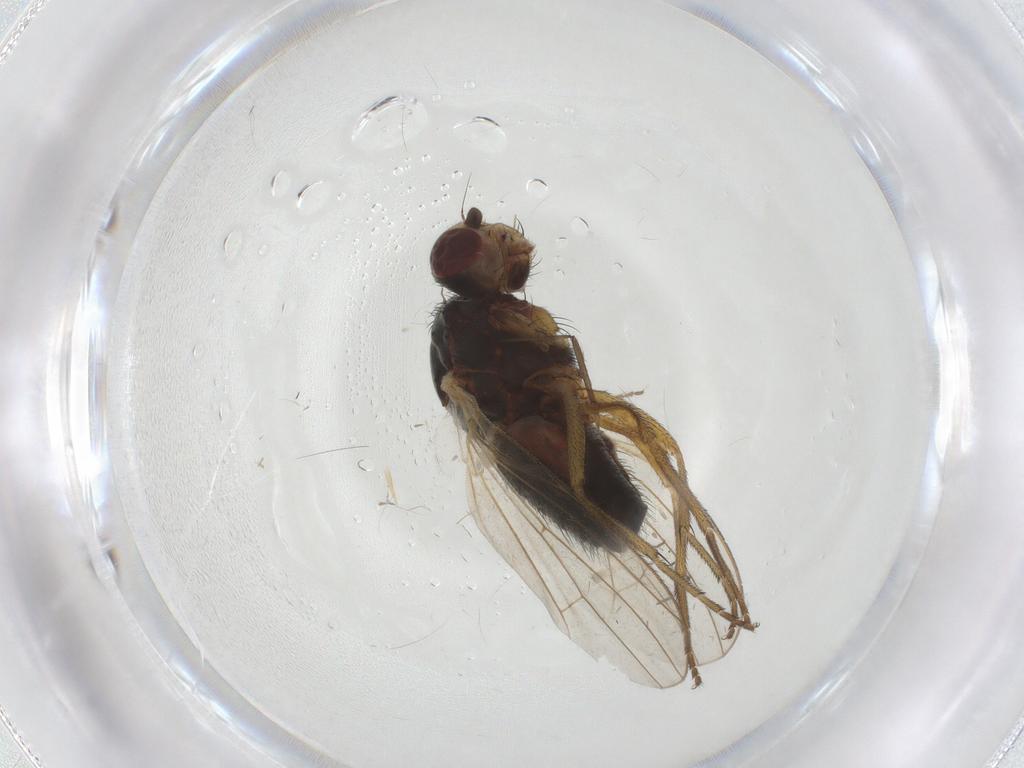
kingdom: Animalia
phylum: Arthropoda
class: Insecta
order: Diptera
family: Heleomyzidae
